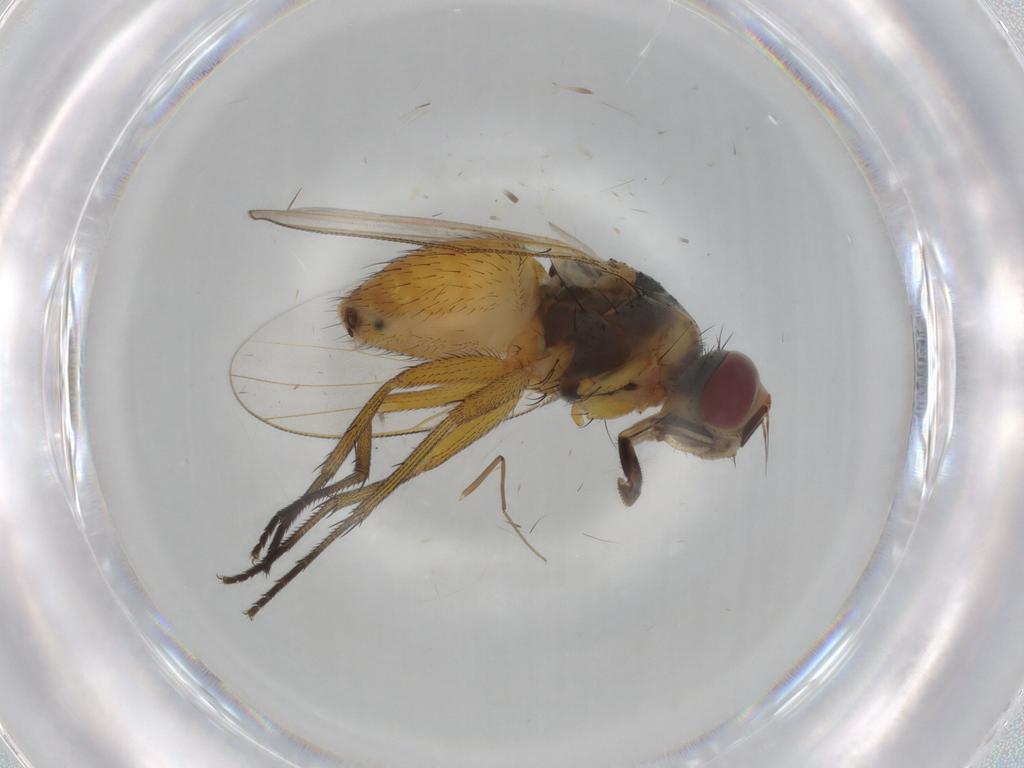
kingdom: Animalia
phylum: Arthropoda
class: Insecta
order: Diptera
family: Muscidae
